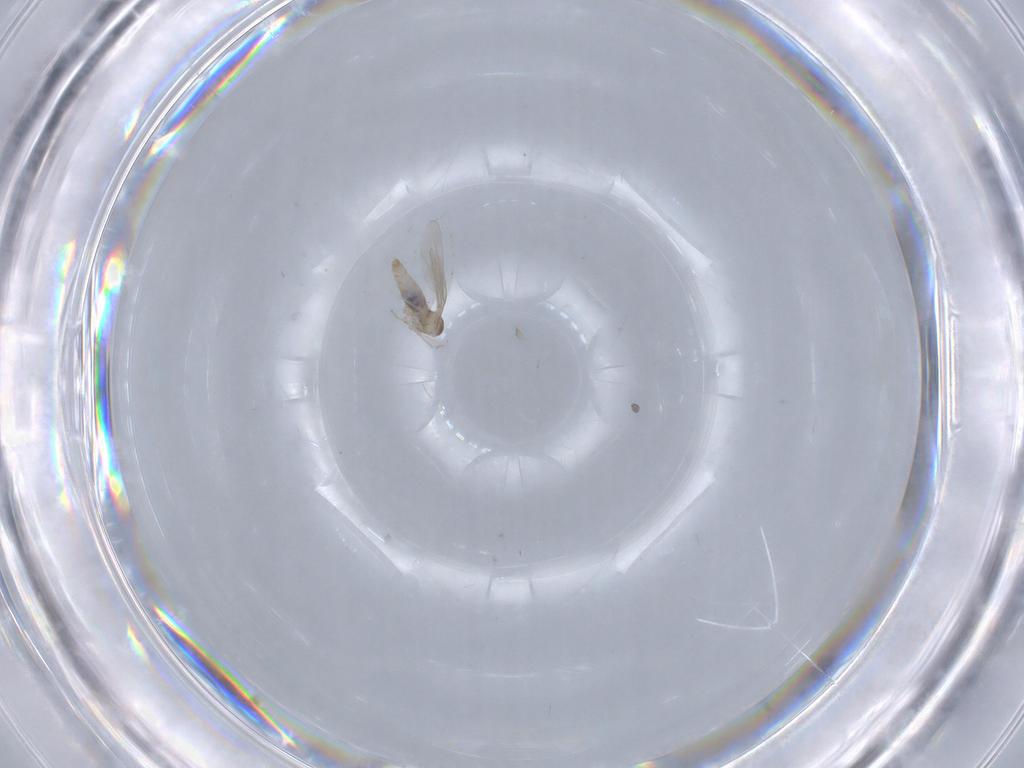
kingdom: Animalia
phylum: Arthropoda
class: Insecta
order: Diptera
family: Cecidomyiidae
